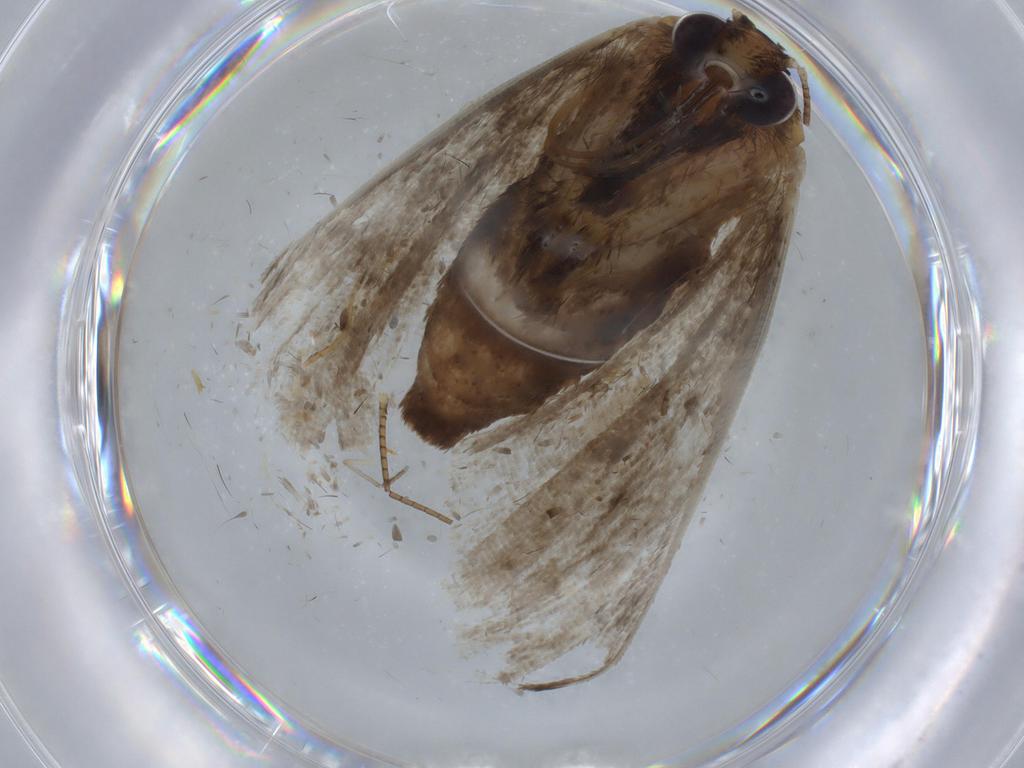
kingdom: Animalia
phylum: Arthropoda
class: Insecta
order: Lepidoptera
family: Erebidae
